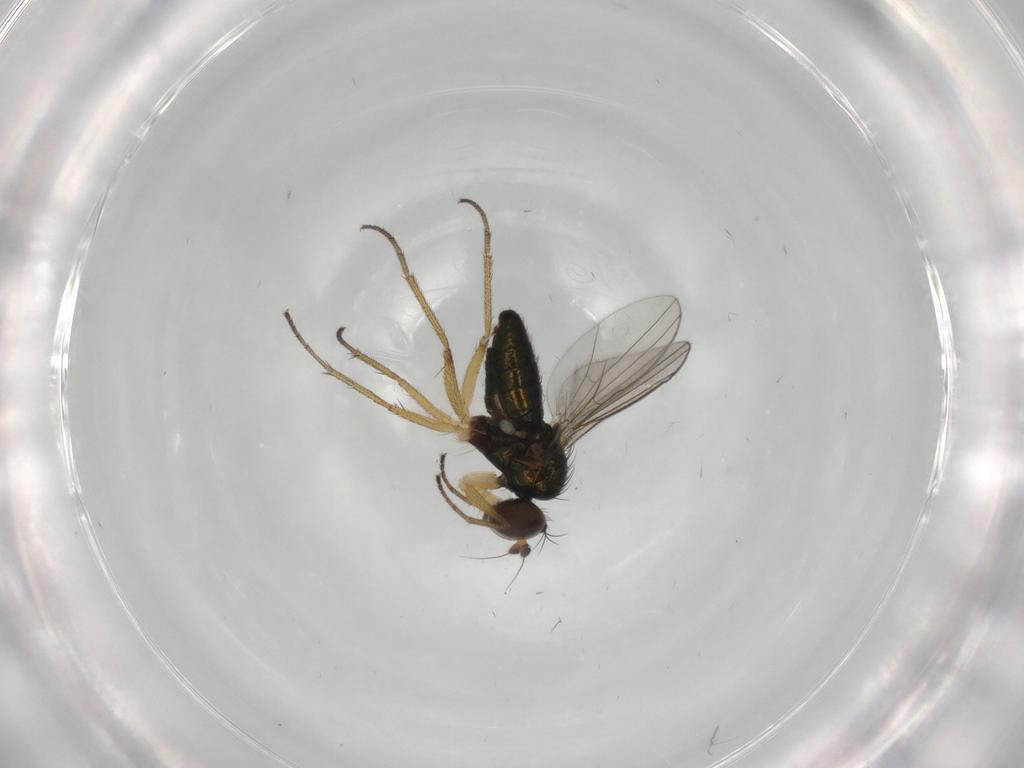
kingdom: Animalia
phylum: Arthropoda
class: Insecta
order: Diptera
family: Dolichopodidae
